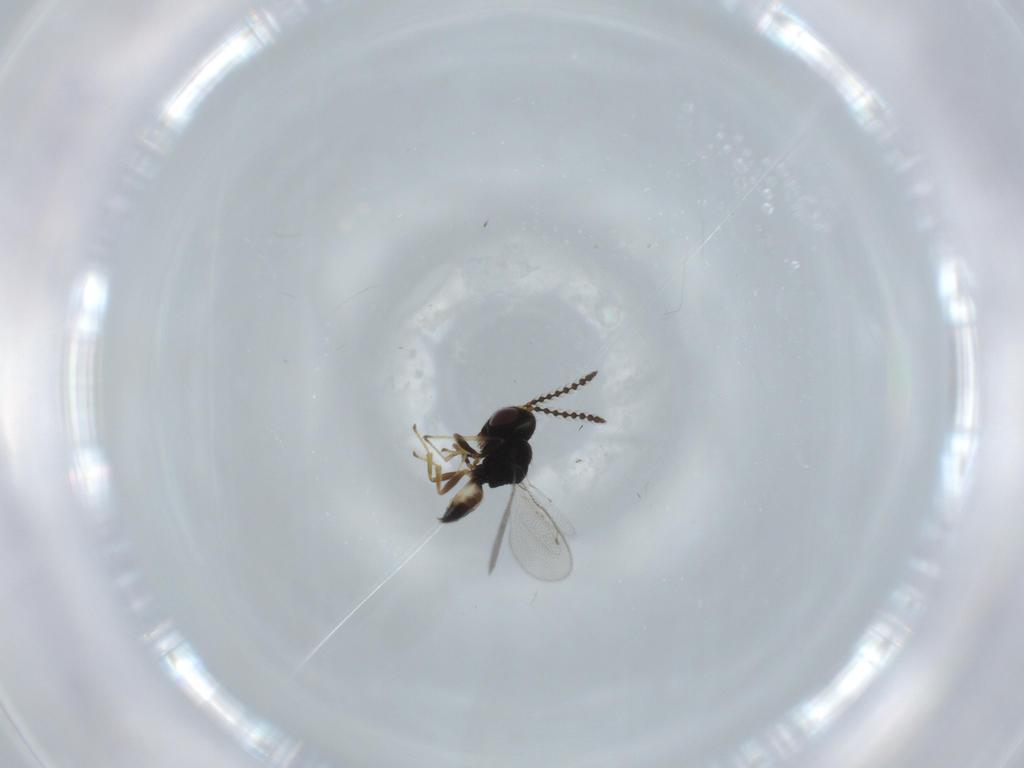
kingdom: Animalia
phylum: Arthropoda
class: Insecta
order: Hymenoptera
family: Pteromalidae
